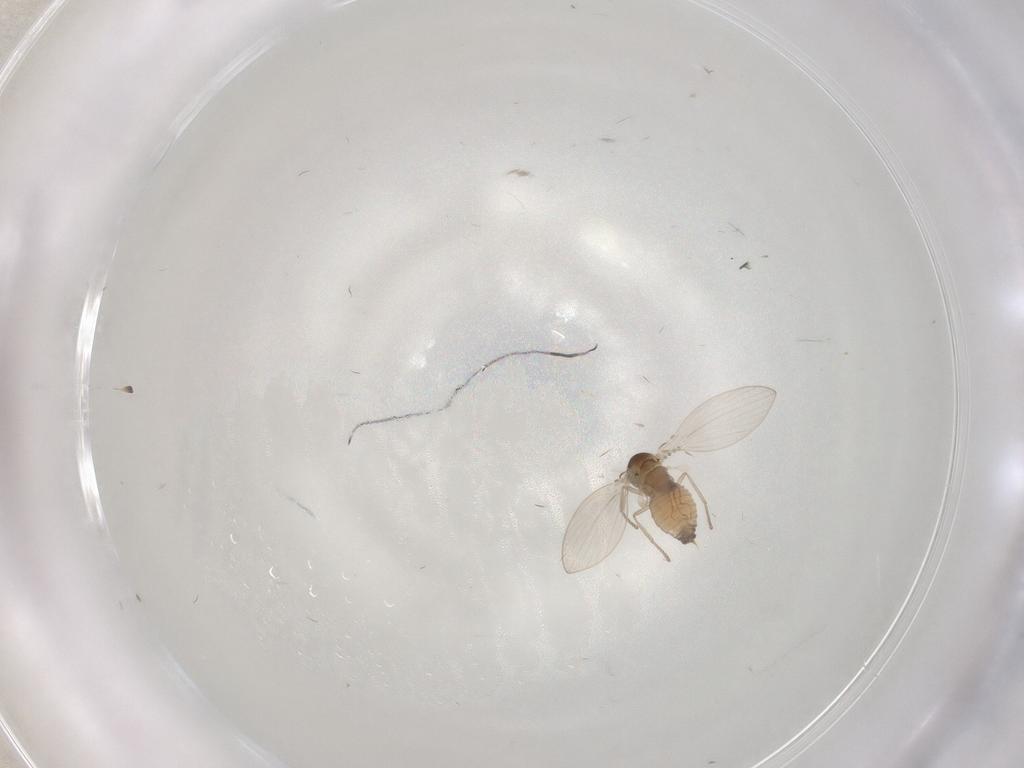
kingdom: Animalia
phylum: Arthropoda
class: Insecta
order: Diptera
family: Psychodidae
